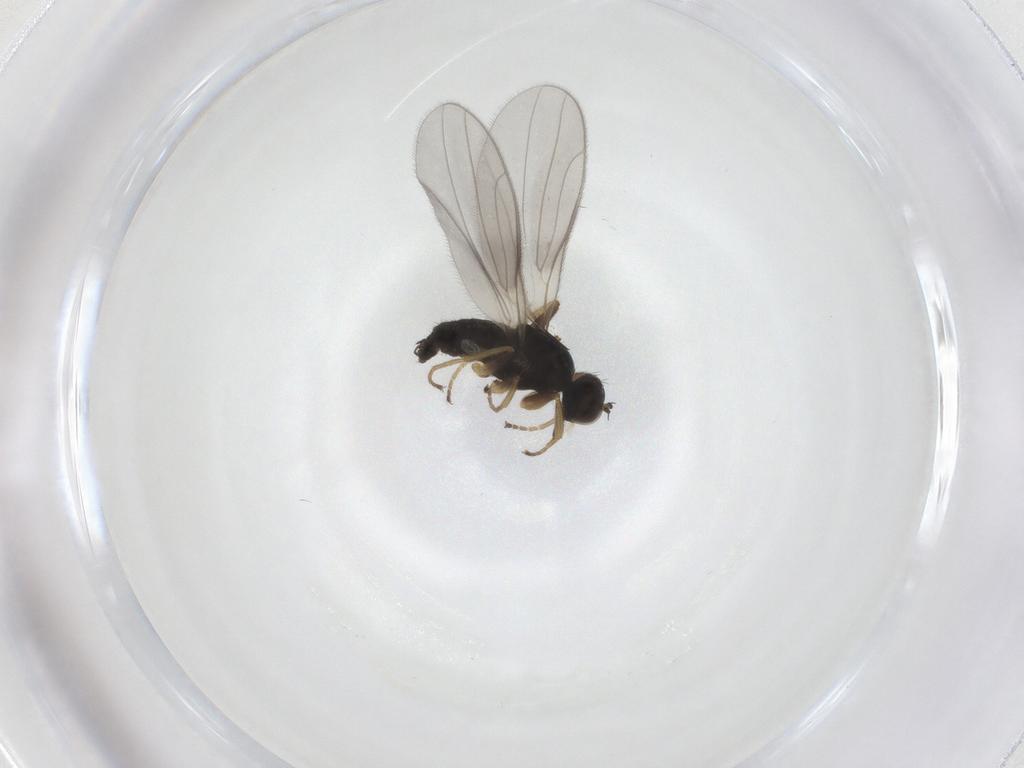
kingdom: Animalia
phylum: Arthropoda
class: Insecta
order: Diptera
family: Hybotidae
